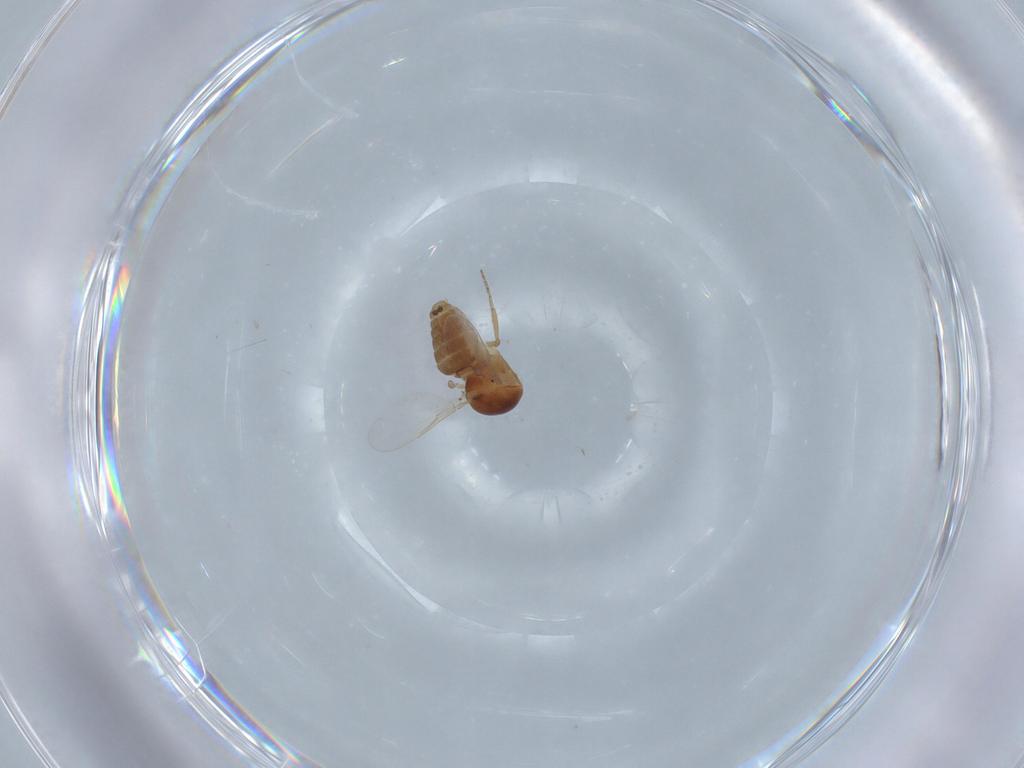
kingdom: Animalia
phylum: Arthropoda
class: Insecta
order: Diptera
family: Ceratopogonidae
